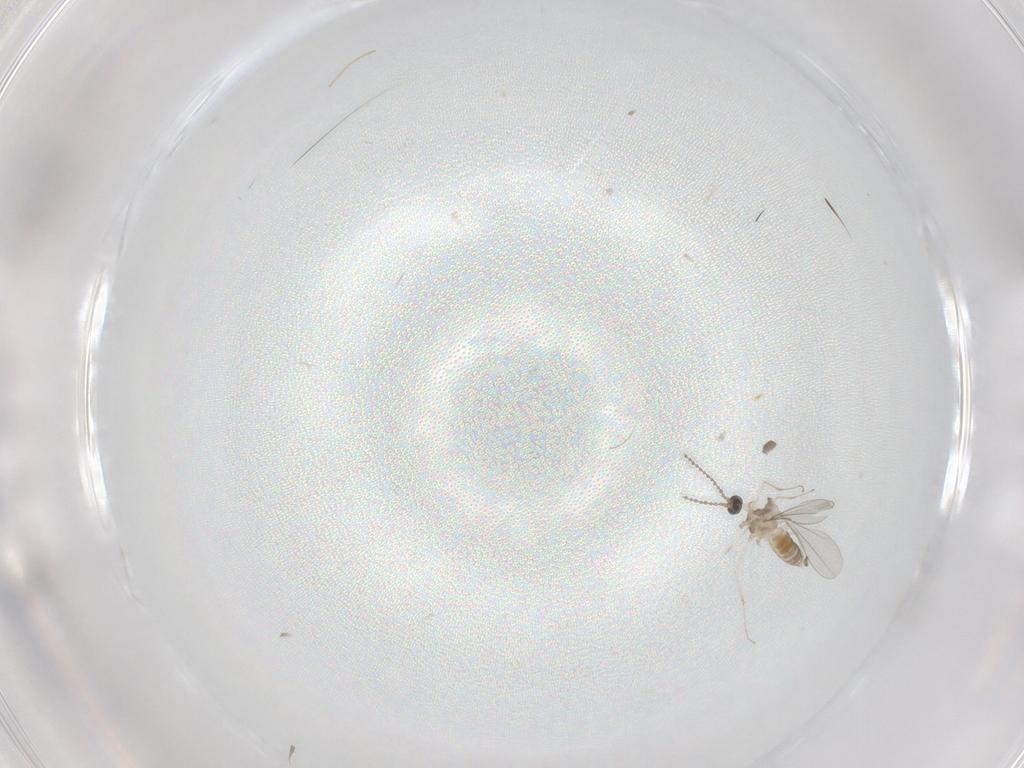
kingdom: Animalia
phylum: Arthropoda
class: Insecta
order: Diptera
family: Cecidomyiidae
